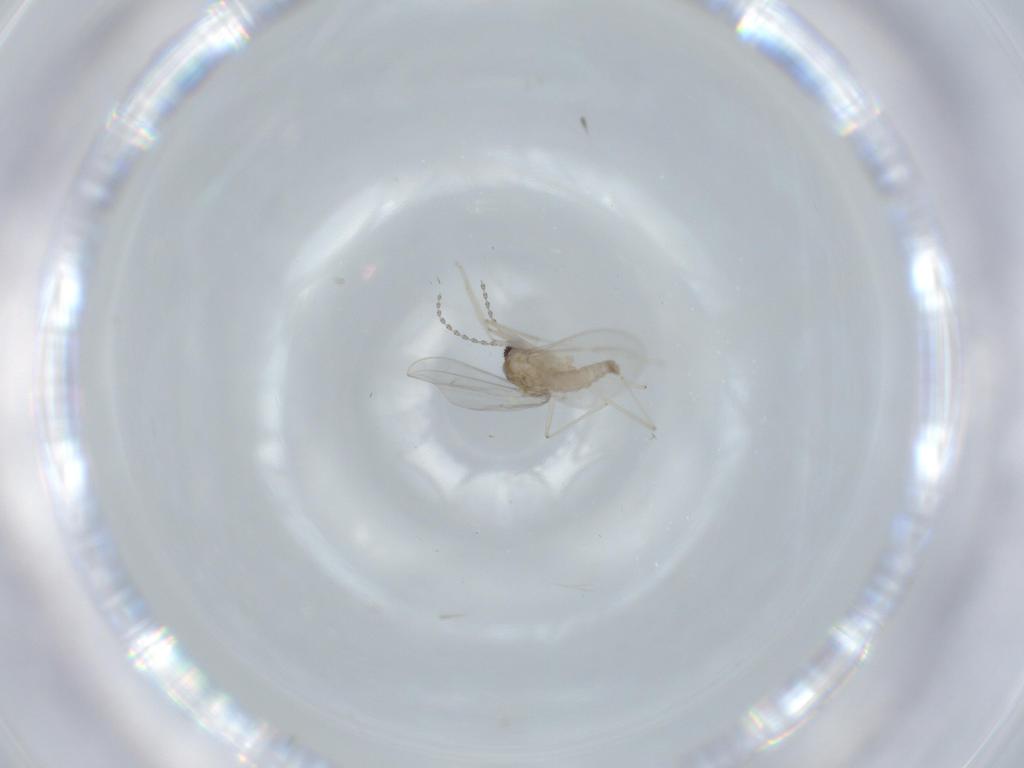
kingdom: Animalia
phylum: Arthropoda
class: Insecta
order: Diptera
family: Cecidomyiidae
